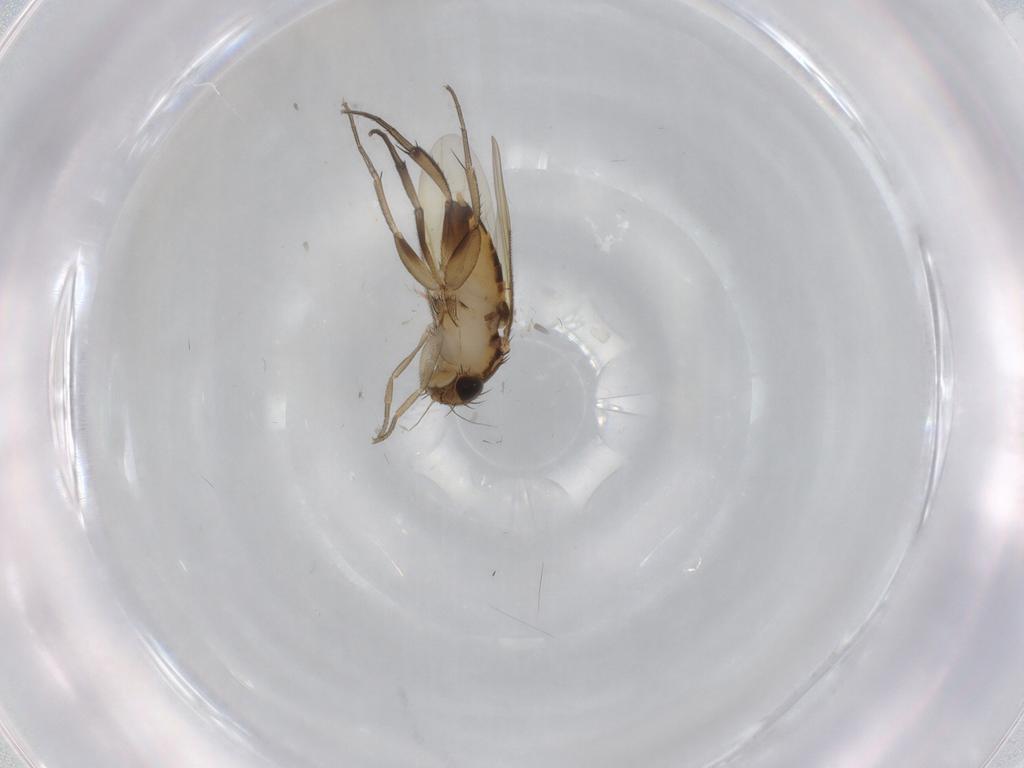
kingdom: Animalia
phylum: Arthropoda
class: Insecta
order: Diptera
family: Phoridae
